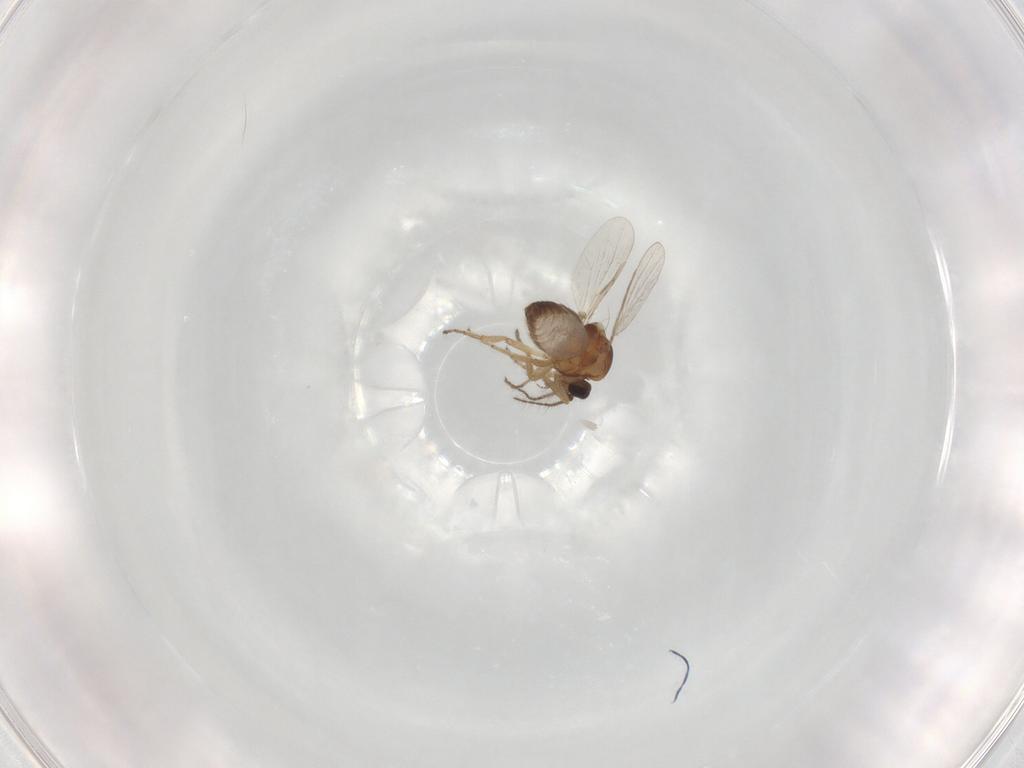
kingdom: Animalia
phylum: Arthropoda
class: Insecta
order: Diptera
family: Ceratopogonidae
